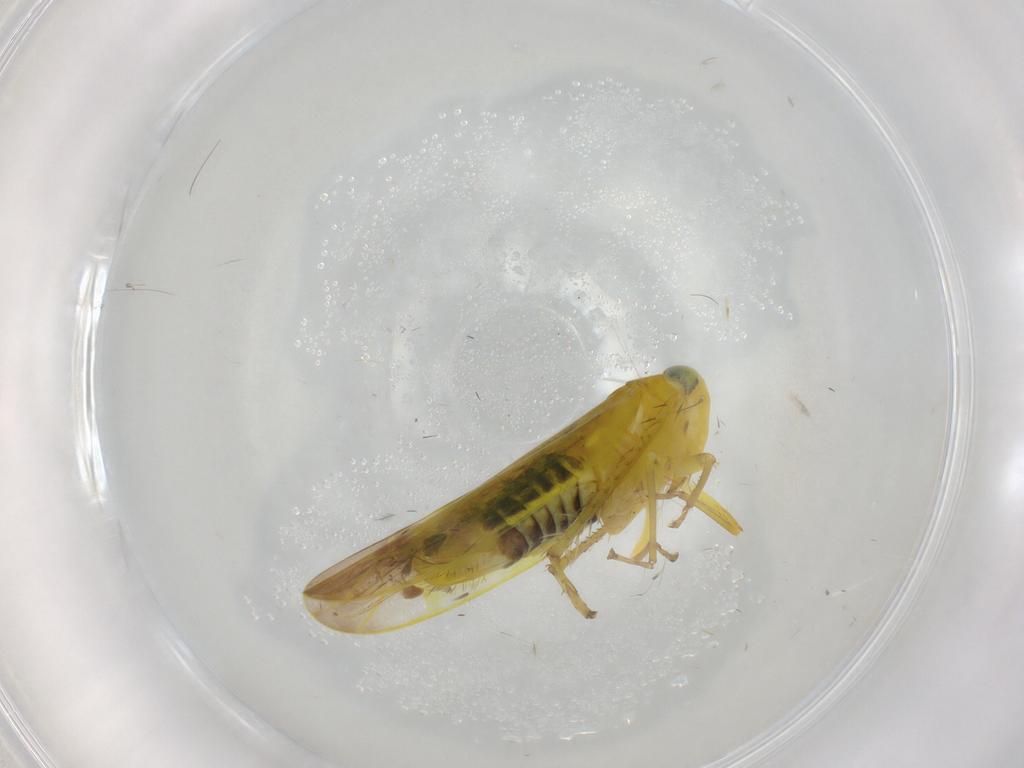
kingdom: Animalia
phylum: Arthropoda
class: Insecta
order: Hemiptera
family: Cicadellidae
